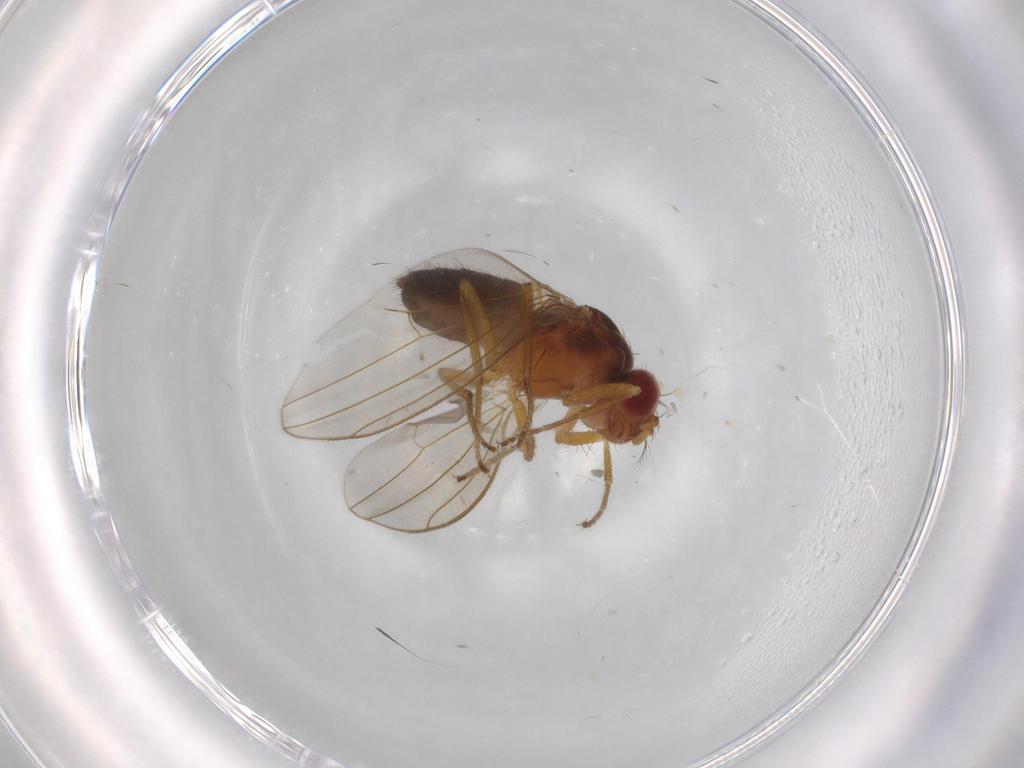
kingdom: Animalia
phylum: Arthropoda
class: Insecta
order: Diptera
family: Drosophilidae
